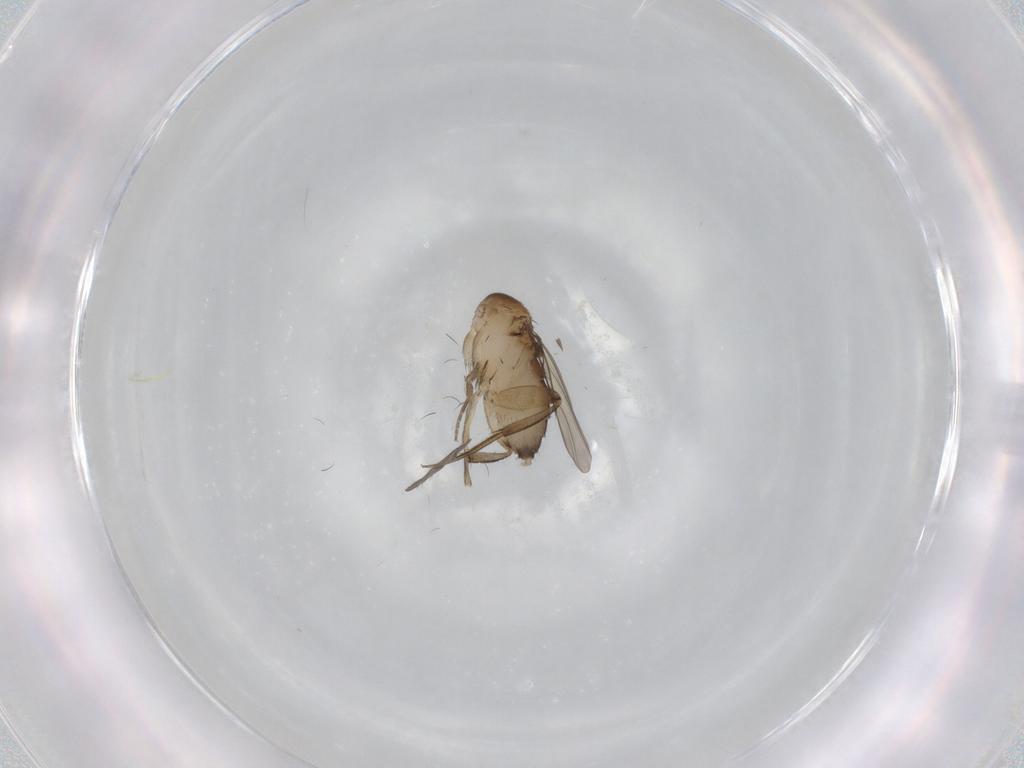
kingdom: Animalia
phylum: Arthropoda
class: Insecta
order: Diptera
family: Phoridae
